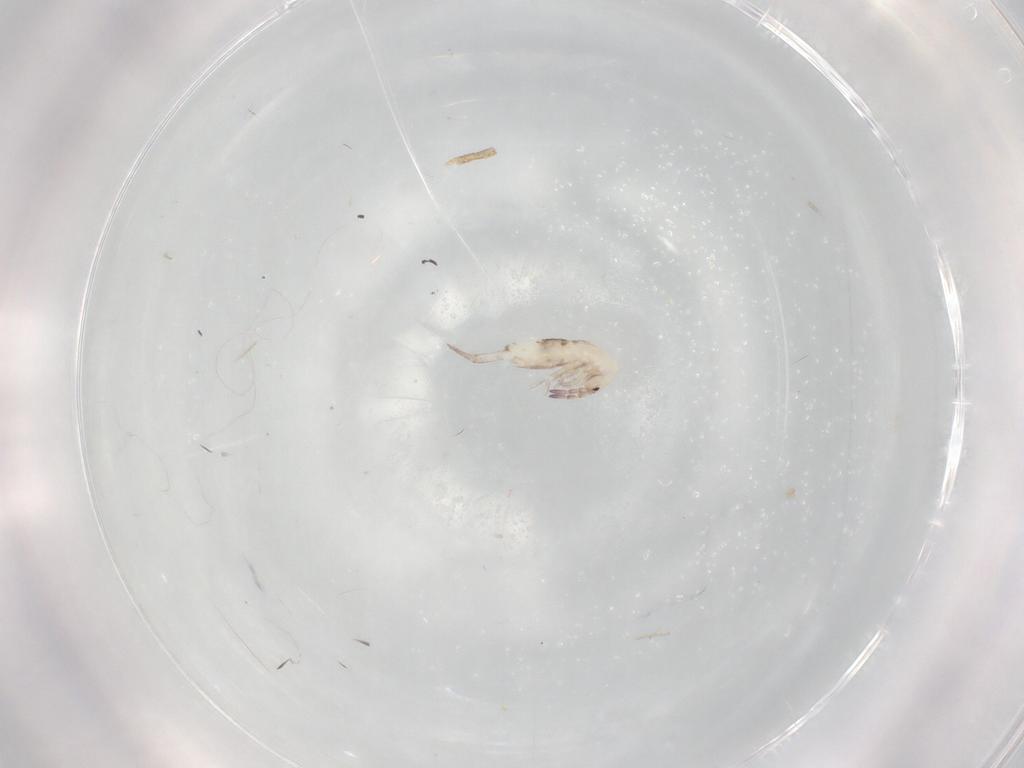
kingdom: Animalia
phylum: Arthropoda
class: Collembola
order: Entomobryomorpha
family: Entomobryidae
